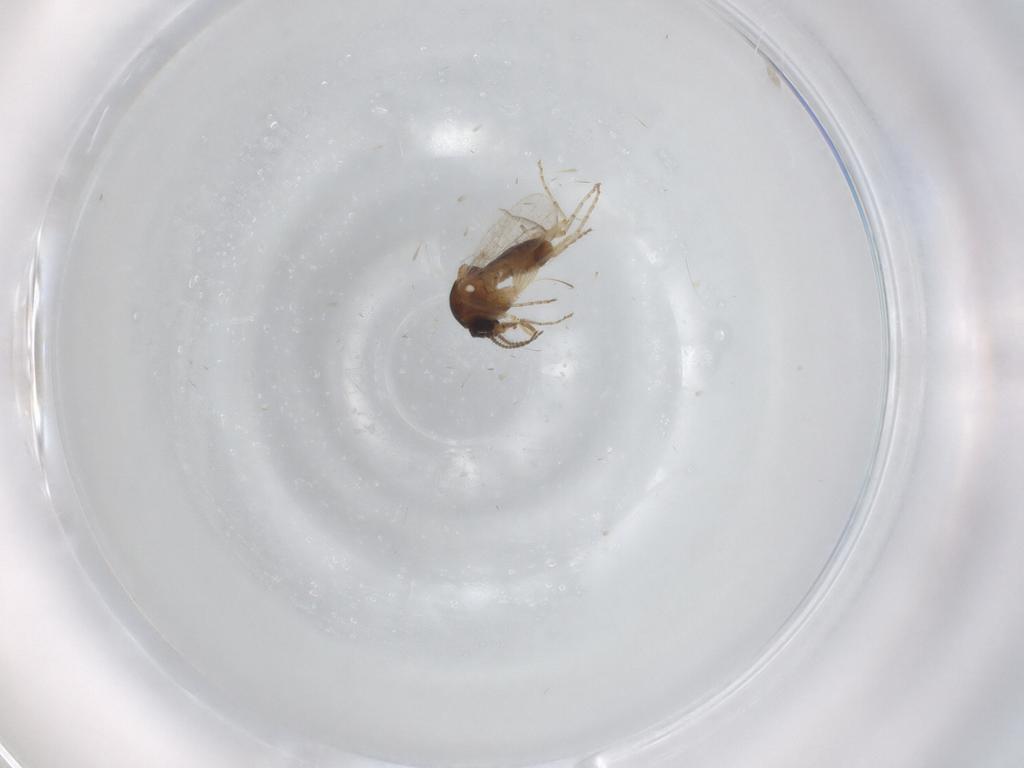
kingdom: Animalia
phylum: Arthropoda
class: Insecta
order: Diptera
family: Ceratopogonidae
